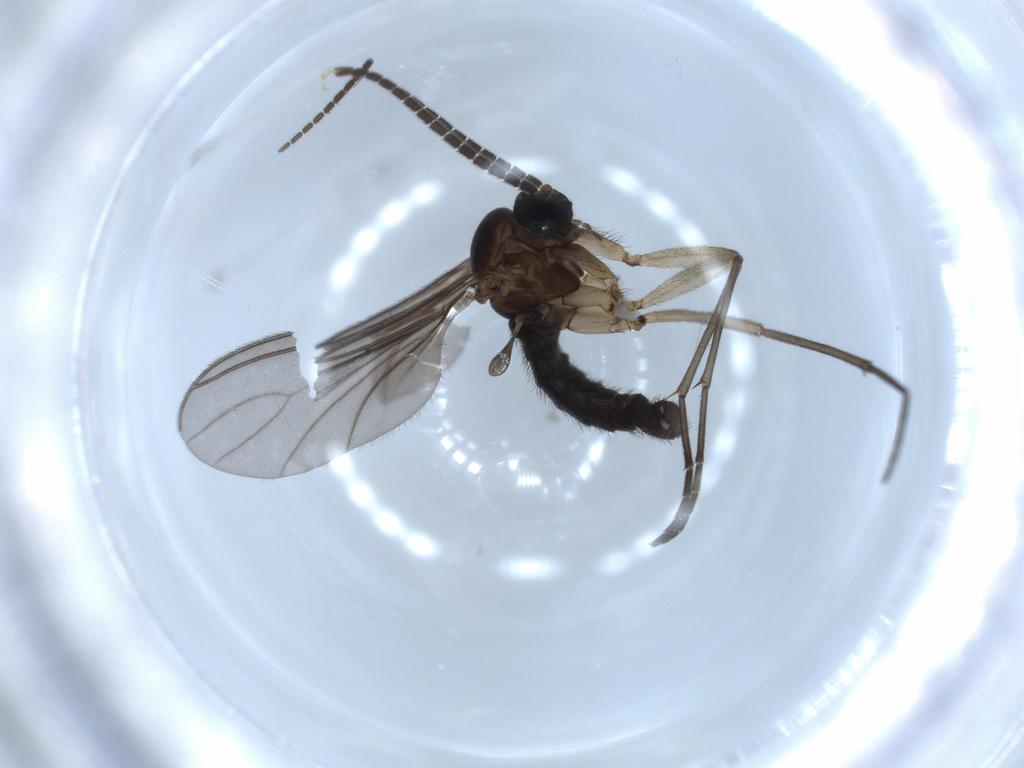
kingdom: Animalia
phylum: Arthropoda
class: Insecta
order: Diptera
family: Sciaridae
